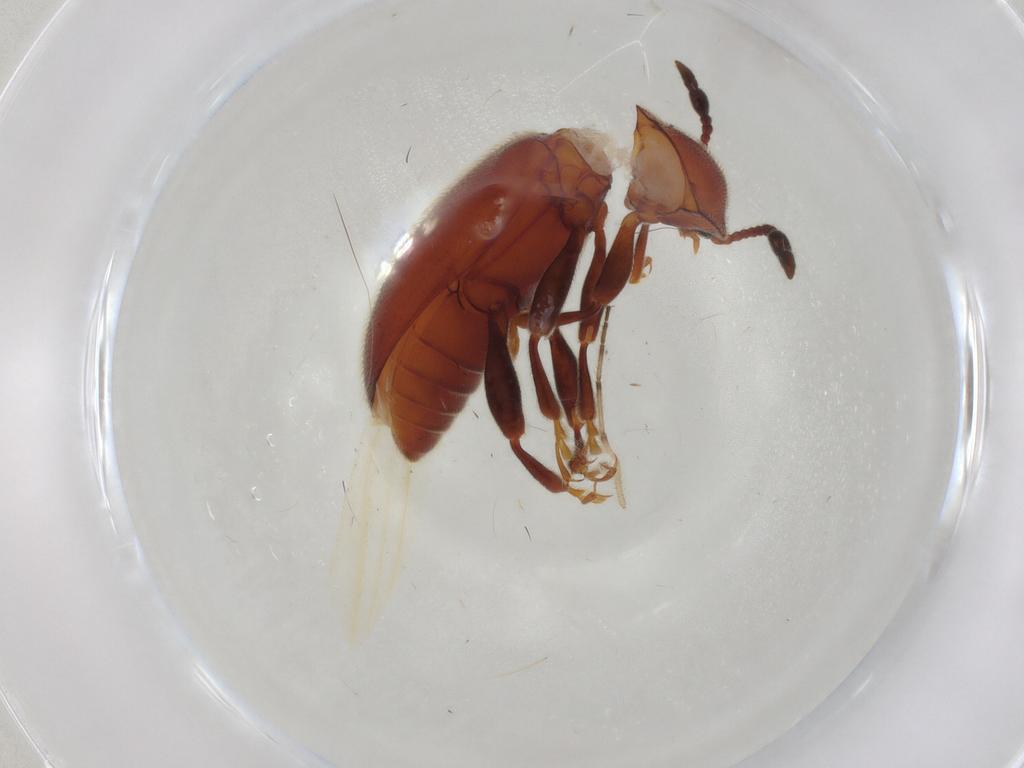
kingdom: Animalia
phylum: Arthropoda
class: Insecta
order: Coleoptera
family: Endomychidae
